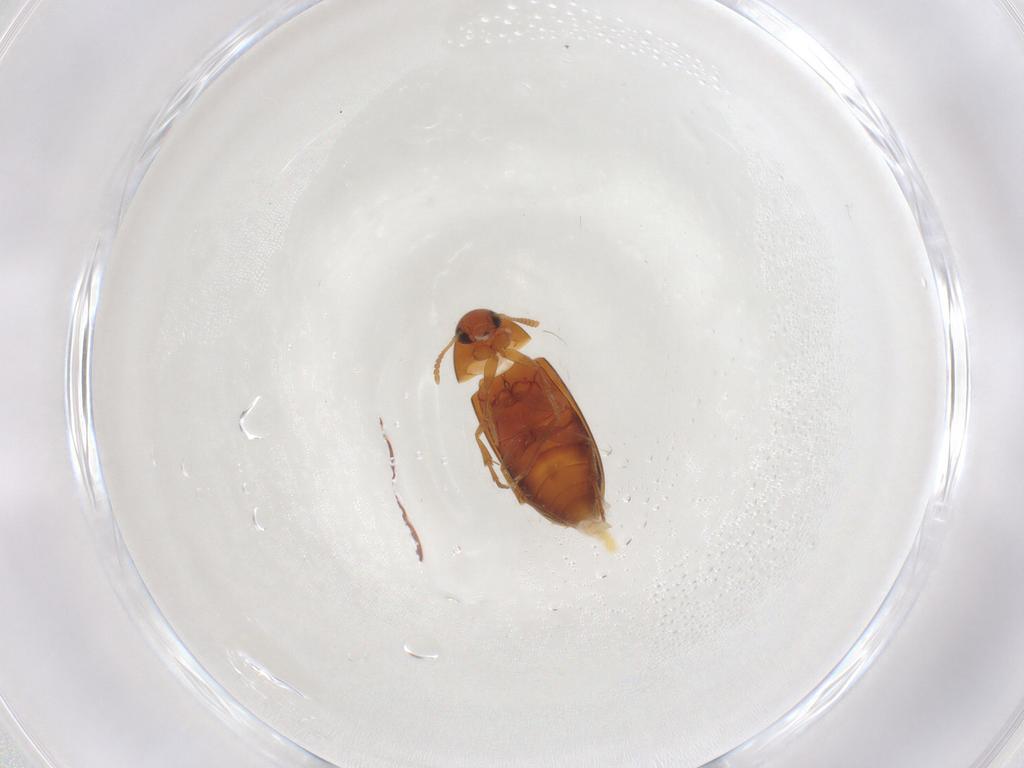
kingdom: Animalia
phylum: Arthropoda
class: Insecta
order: Coleoptera
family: Scraptiidae
